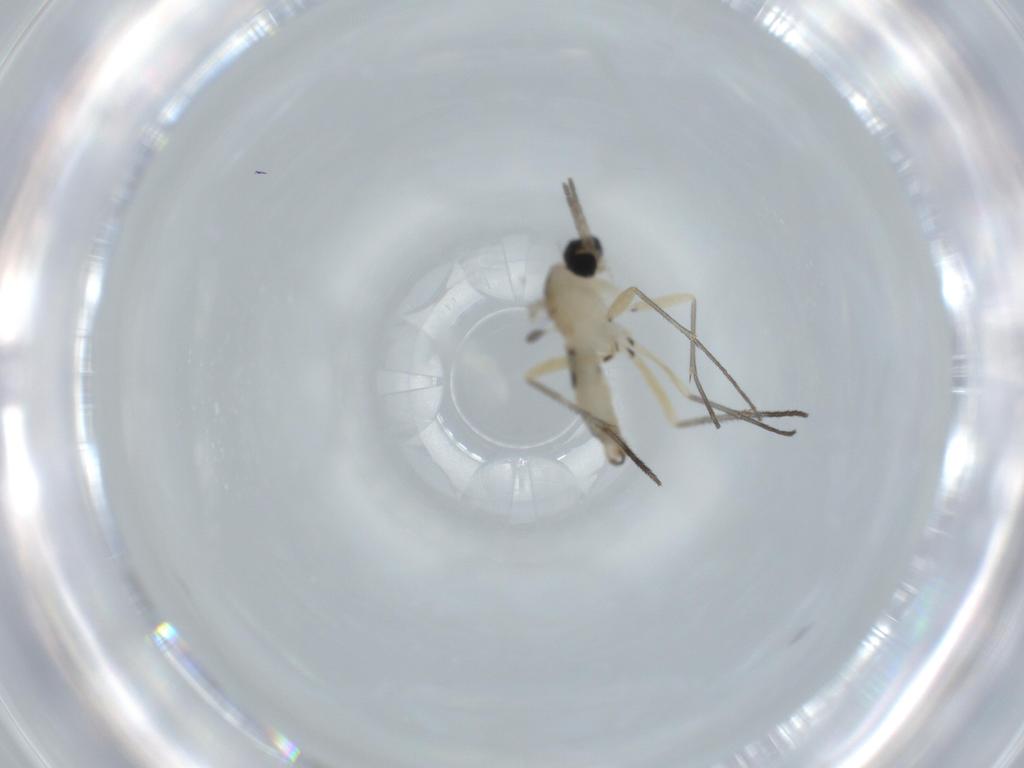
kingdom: Animalia
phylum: Arthropoda
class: Insecta
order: Diptera
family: Sciaridae
